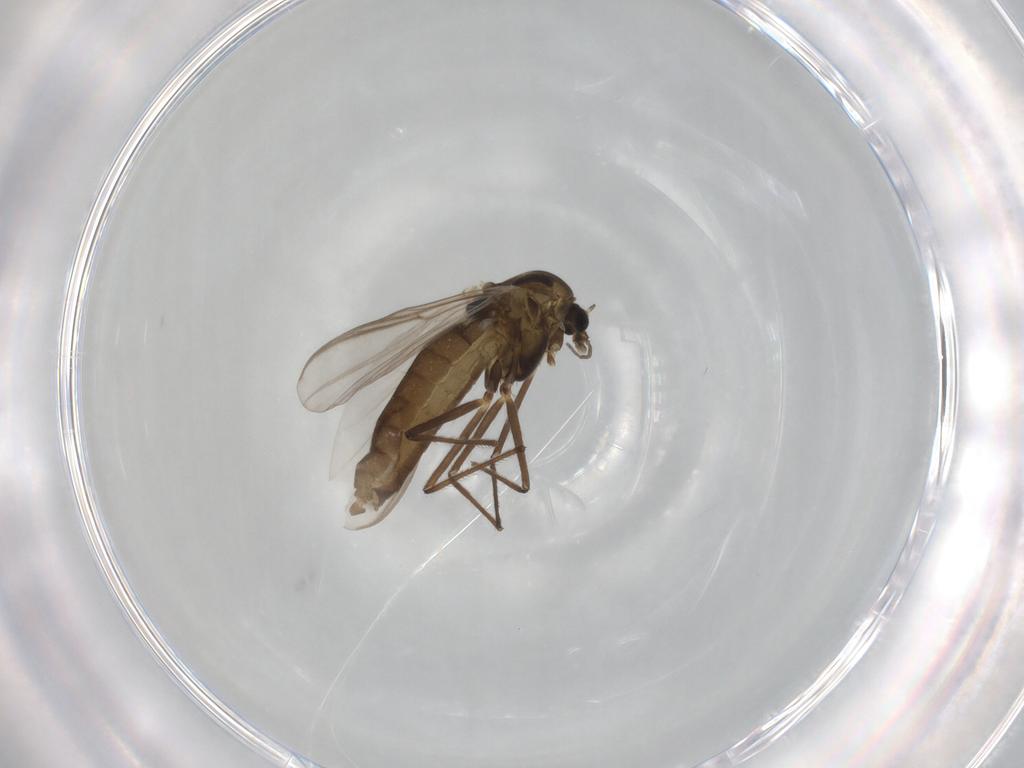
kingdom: Animalia
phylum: Arthropoda
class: Insecta
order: Diptera
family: Chironomidae
